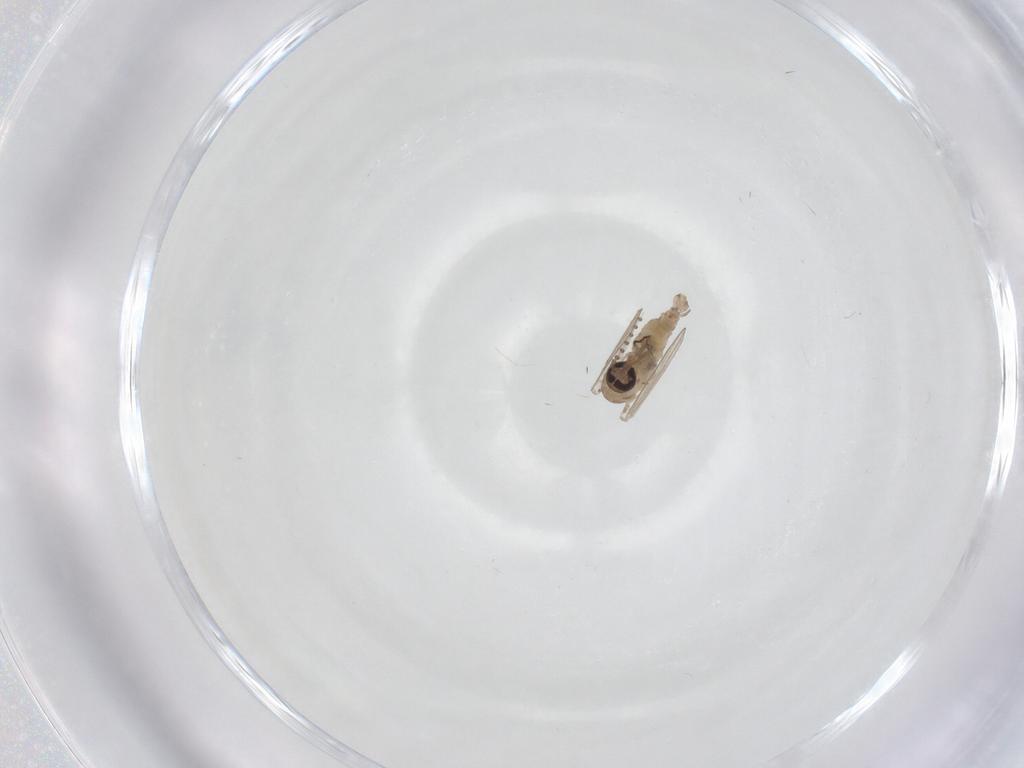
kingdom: Animalia
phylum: Arthropoda
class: Insecta
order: Diptera
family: Psychodidae
